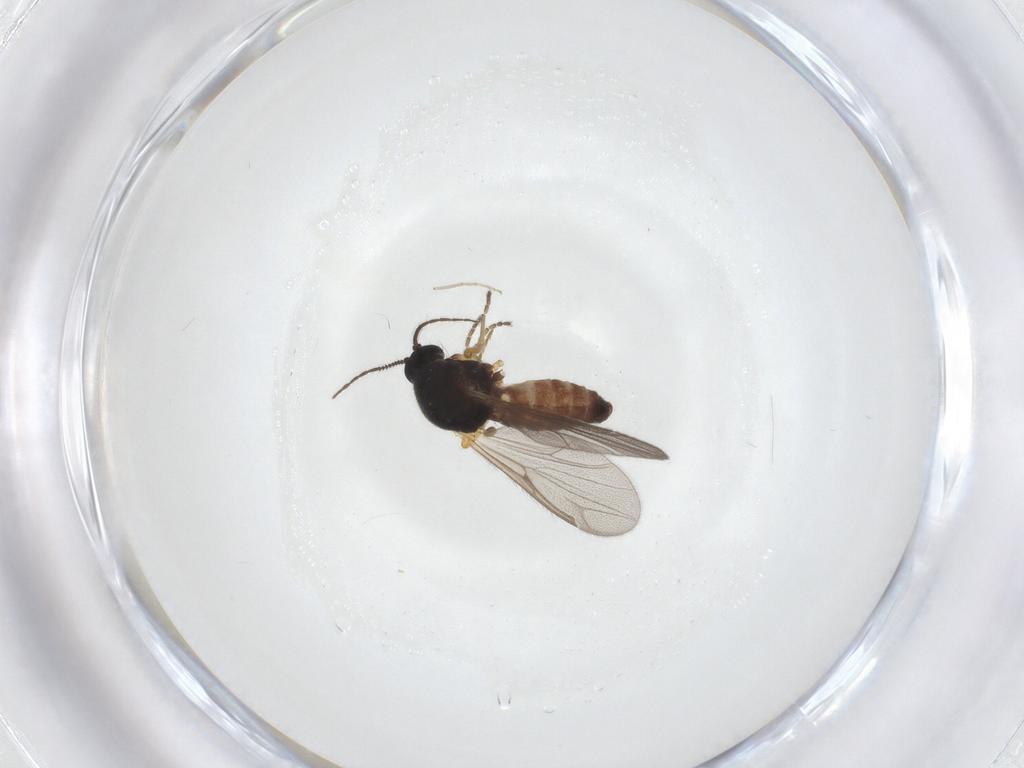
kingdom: Animalia
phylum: Arthropoda
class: Insecta
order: Diptera
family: Ceratopogonidae
